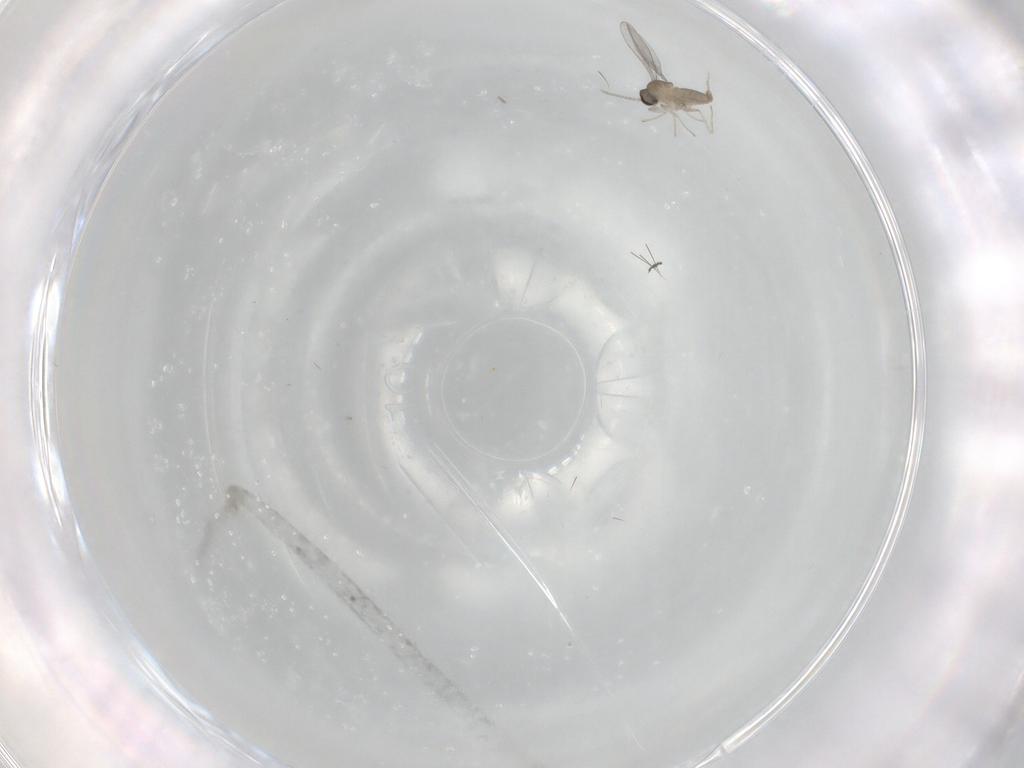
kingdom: Animalia
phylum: Arthropoda
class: Insecta
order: Diptera
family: Cecidomyiidae
